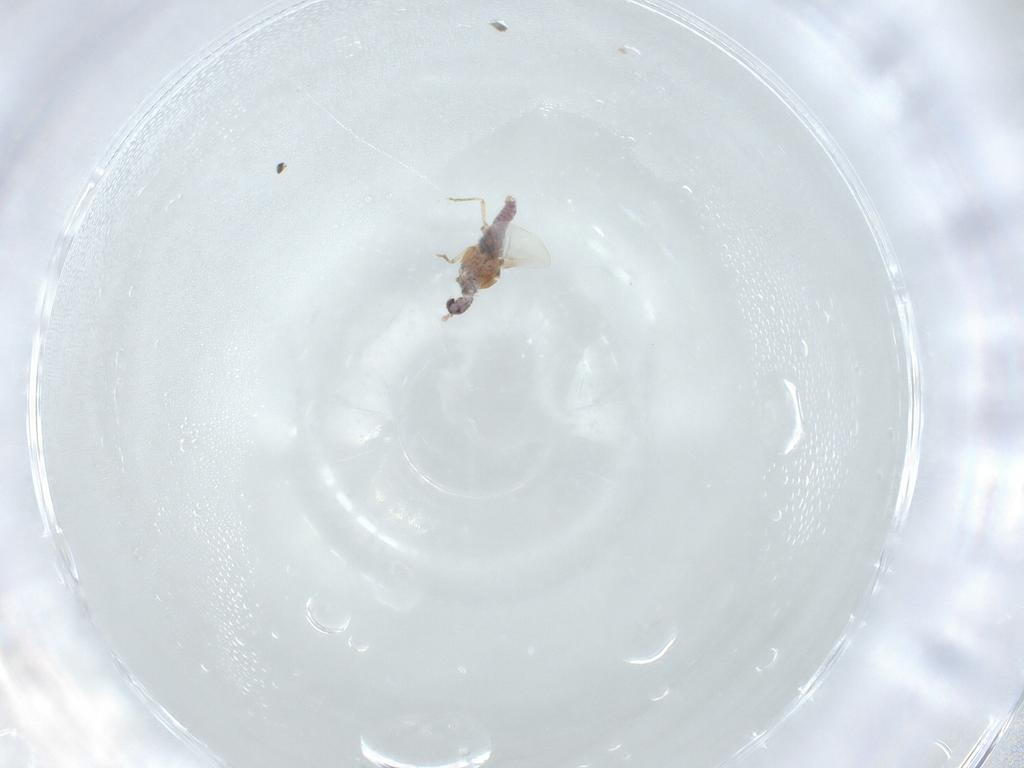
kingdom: Animalia
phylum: Arthropoda
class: Insecta
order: Diptera
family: Cecidomyiidae
